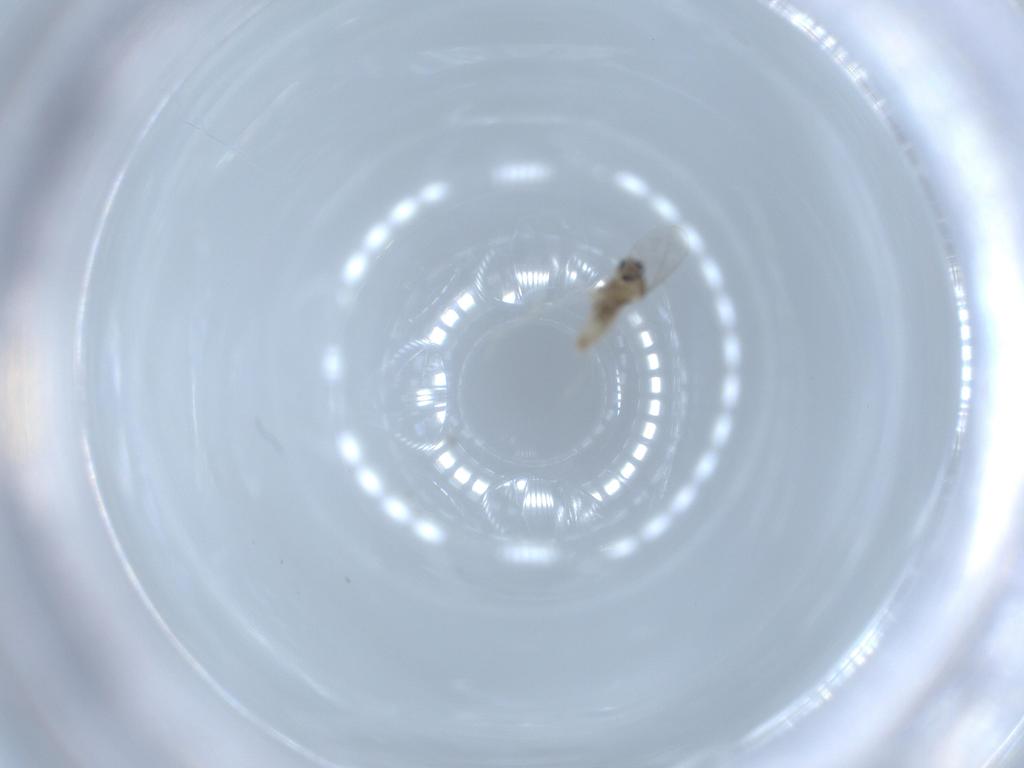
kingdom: Animalia
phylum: Arthropoda
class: Insecta
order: Diptera
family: Cecidomyiidae
